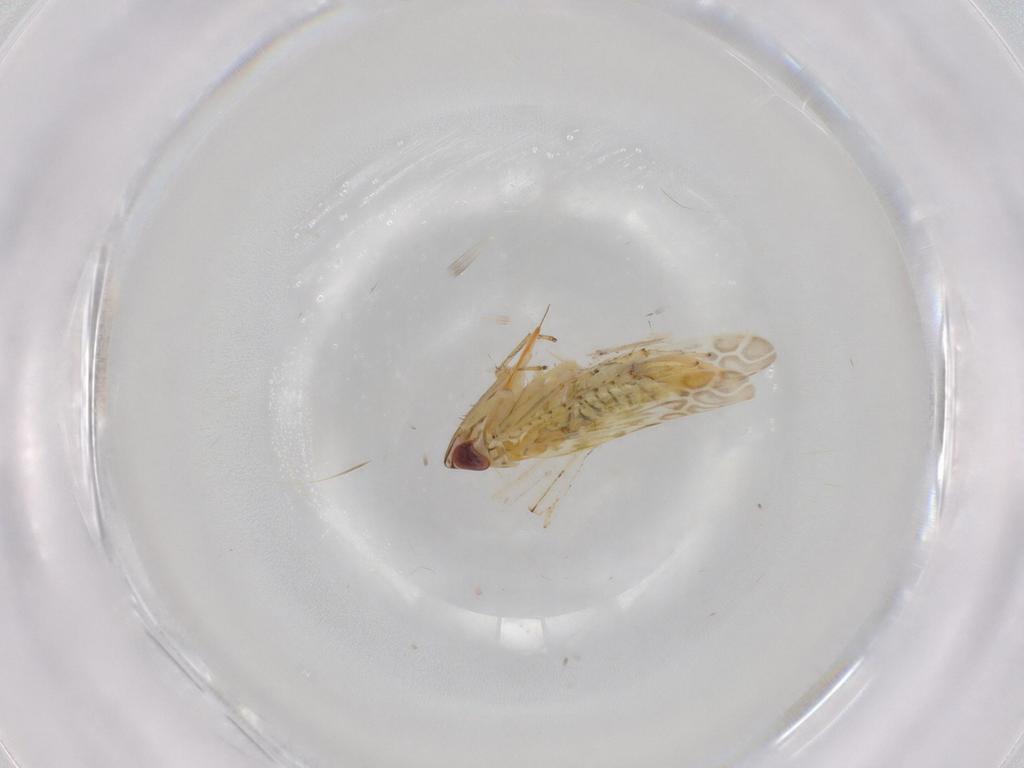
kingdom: Animalia
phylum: Arthropoda
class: Insecta
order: Hemiptera
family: Cicadellidae
